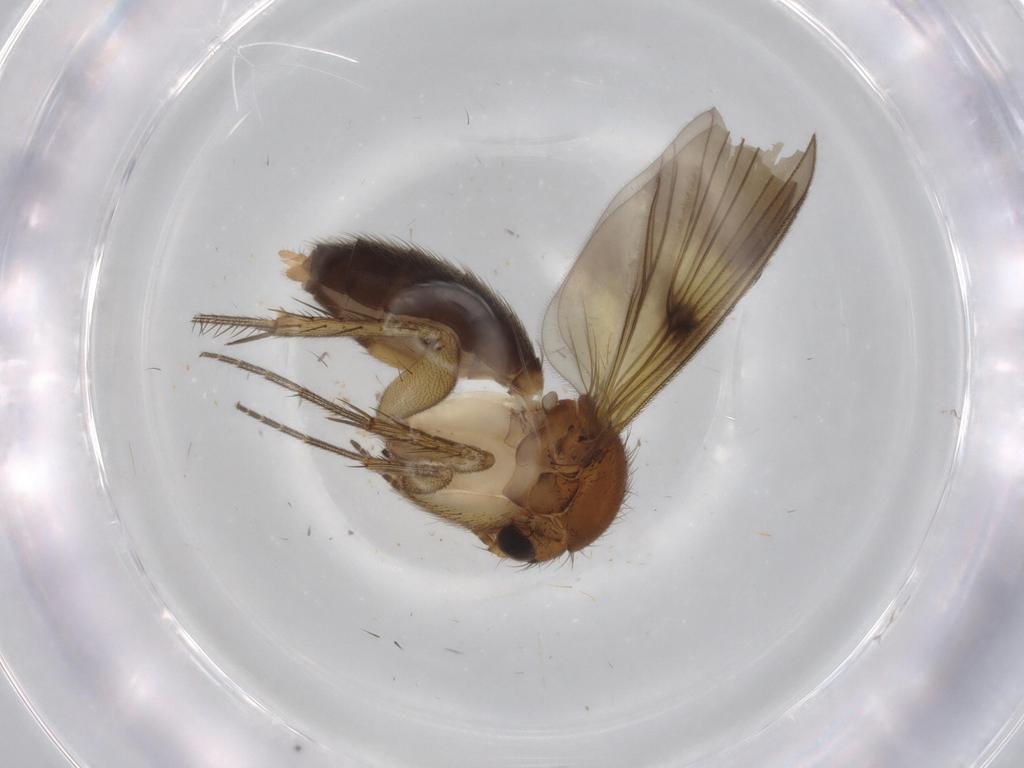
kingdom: Animalia
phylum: Arthropoda
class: Insecta
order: Diptera
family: Mycetophilidae
